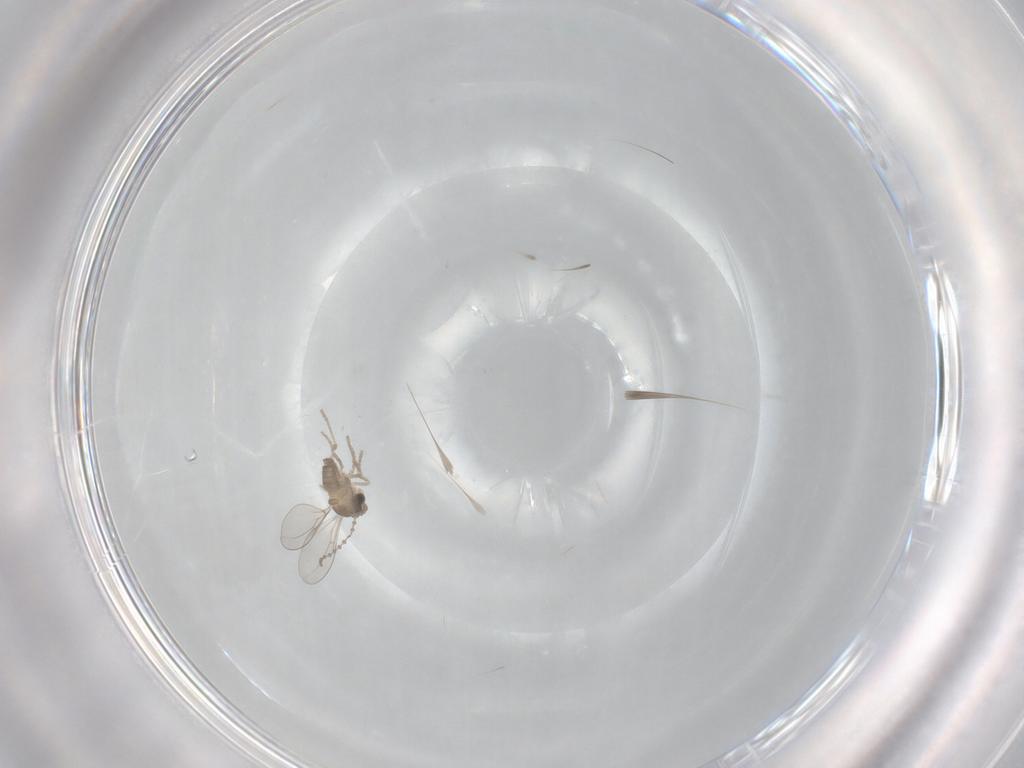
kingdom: Animalia
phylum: Arthropoda
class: Insecta
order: Diptera
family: Cecidomyiidae
